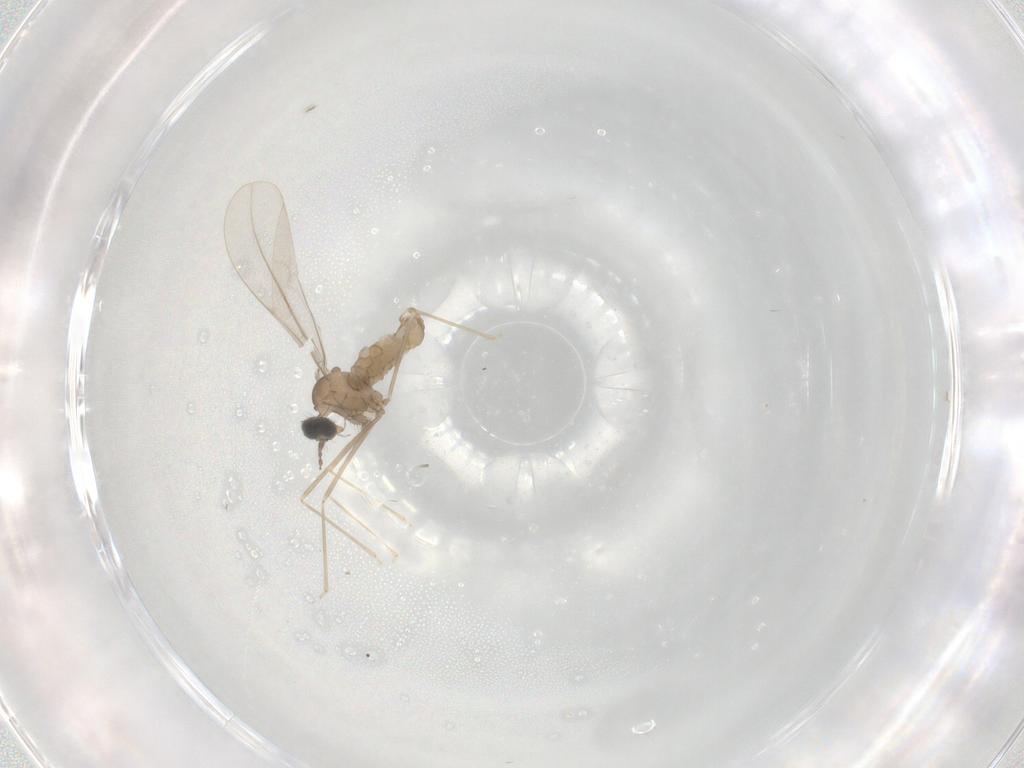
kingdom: Animalia
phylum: Arthropoda
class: Insecta
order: Diptera
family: Cecidomyiidae
